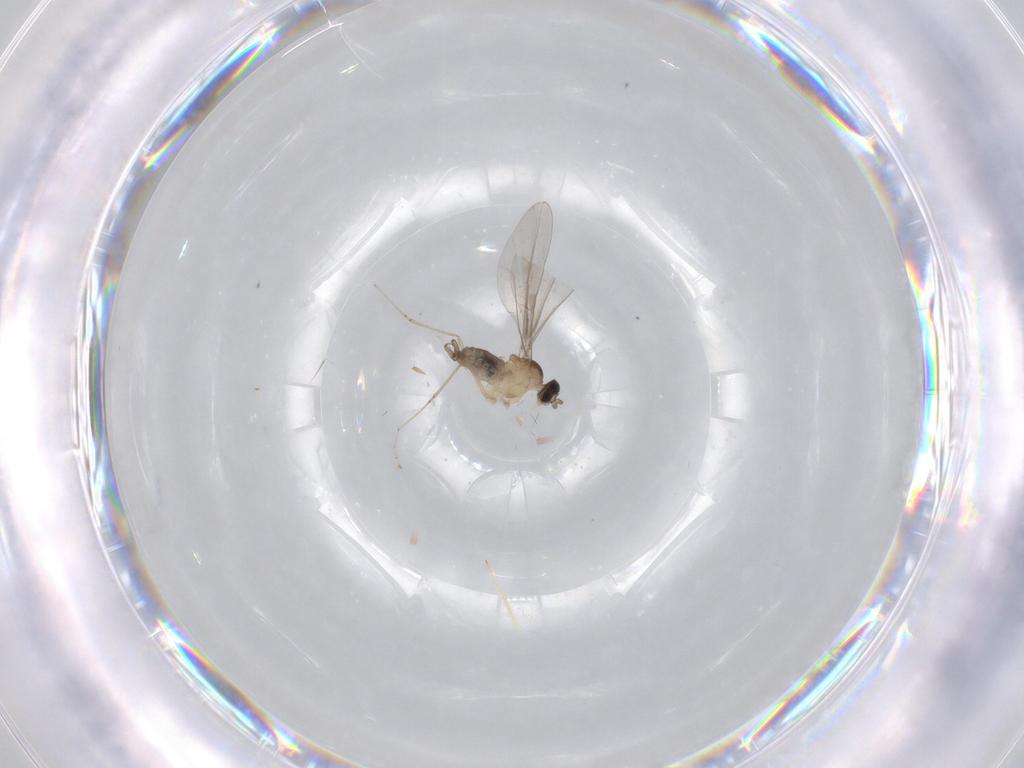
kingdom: Animalia
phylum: Arthropoda
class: Insecta
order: Diptera
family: Cecidomyiidae
